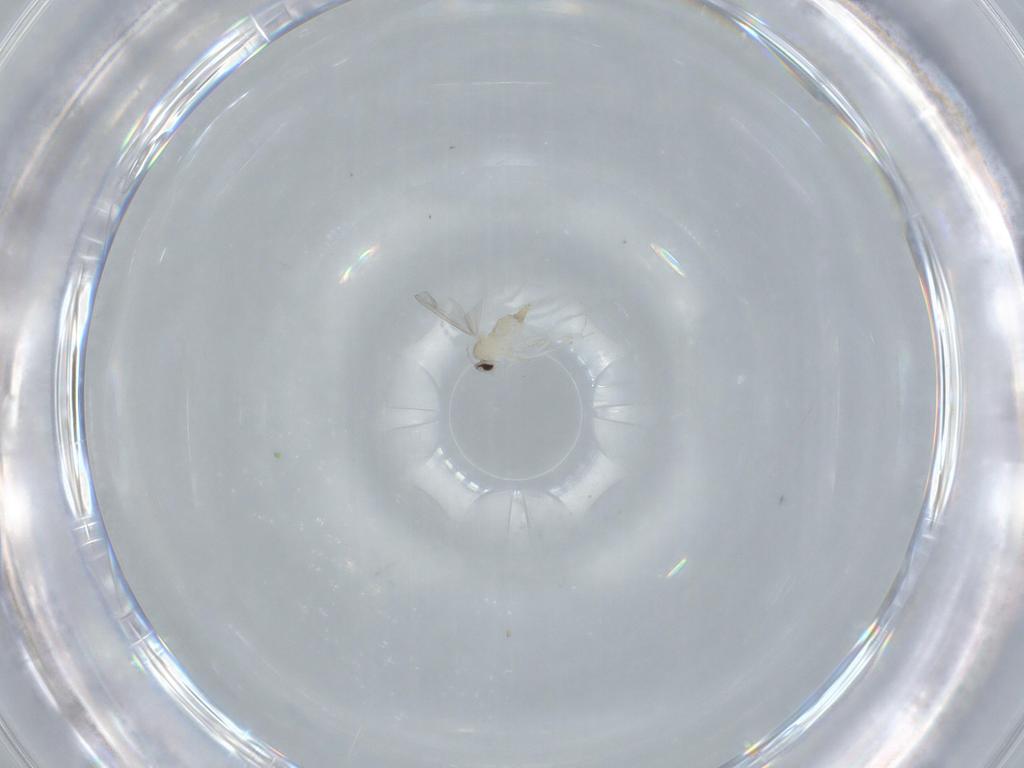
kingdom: Animalia
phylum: Arthropoda
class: Insecta
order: Diptera
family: Cecidomyiidae
